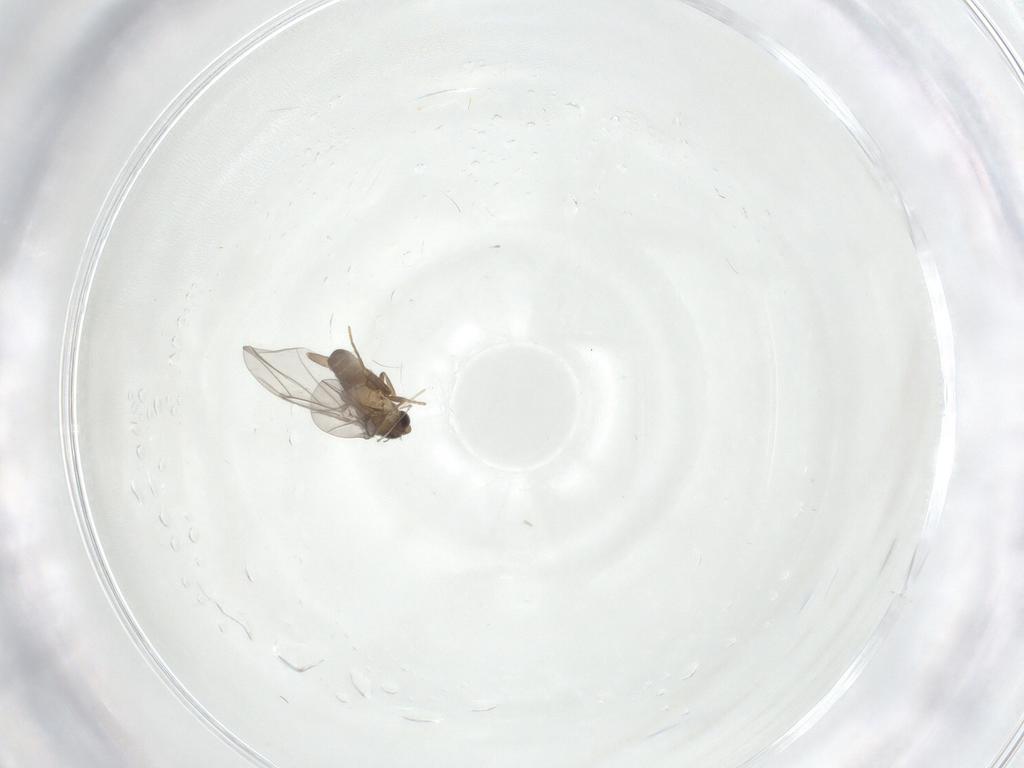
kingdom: Animalia
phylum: Arthropoda
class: Insecta
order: Diptera
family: Cecidomyiidae
